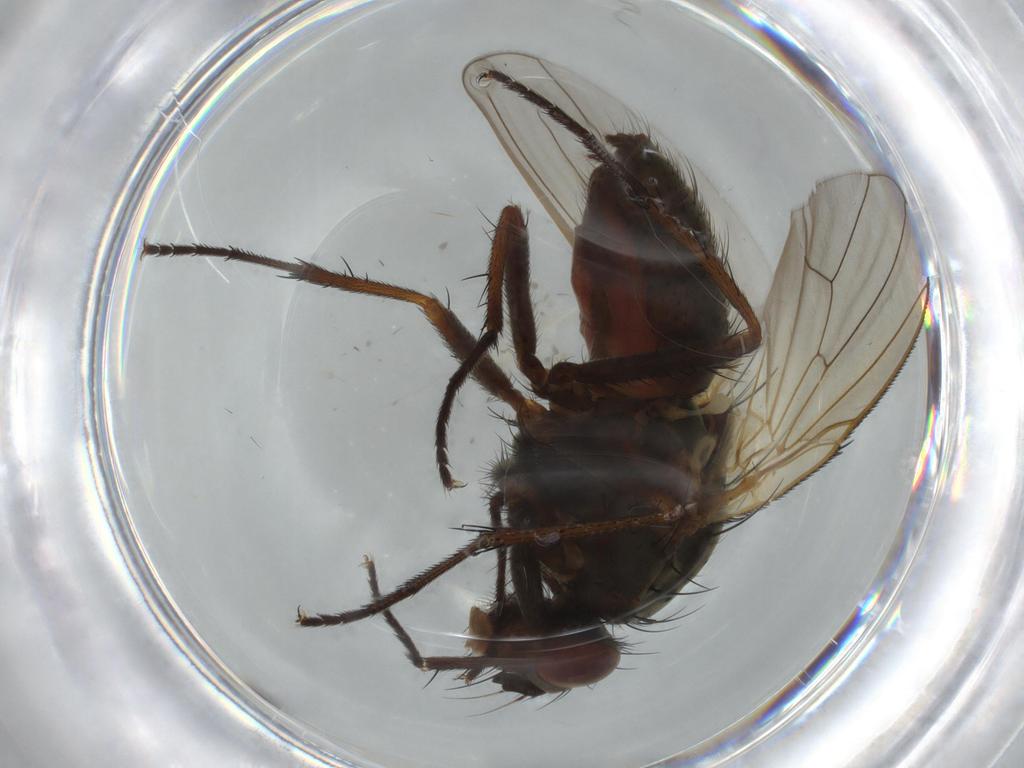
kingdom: Animalia
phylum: Arthropoda
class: Insecta
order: Diptera
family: Anthomyiidae
